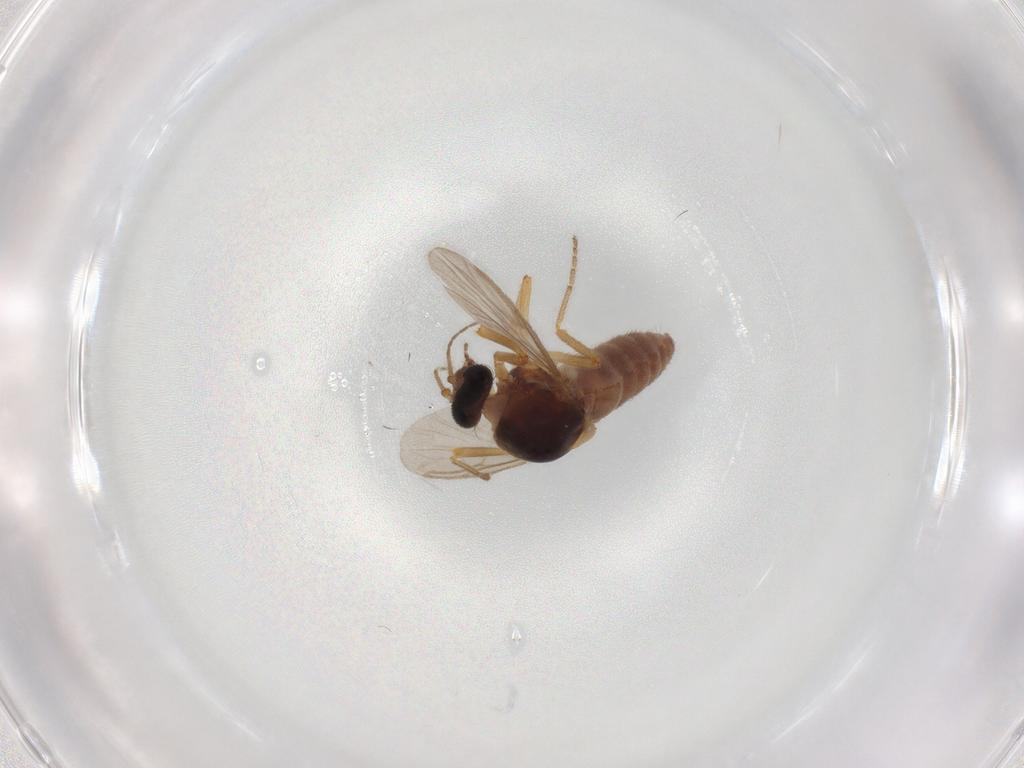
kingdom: Animalia
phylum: Arthropoda
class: Insecta
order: Diptera
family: Ceratopogonidae
